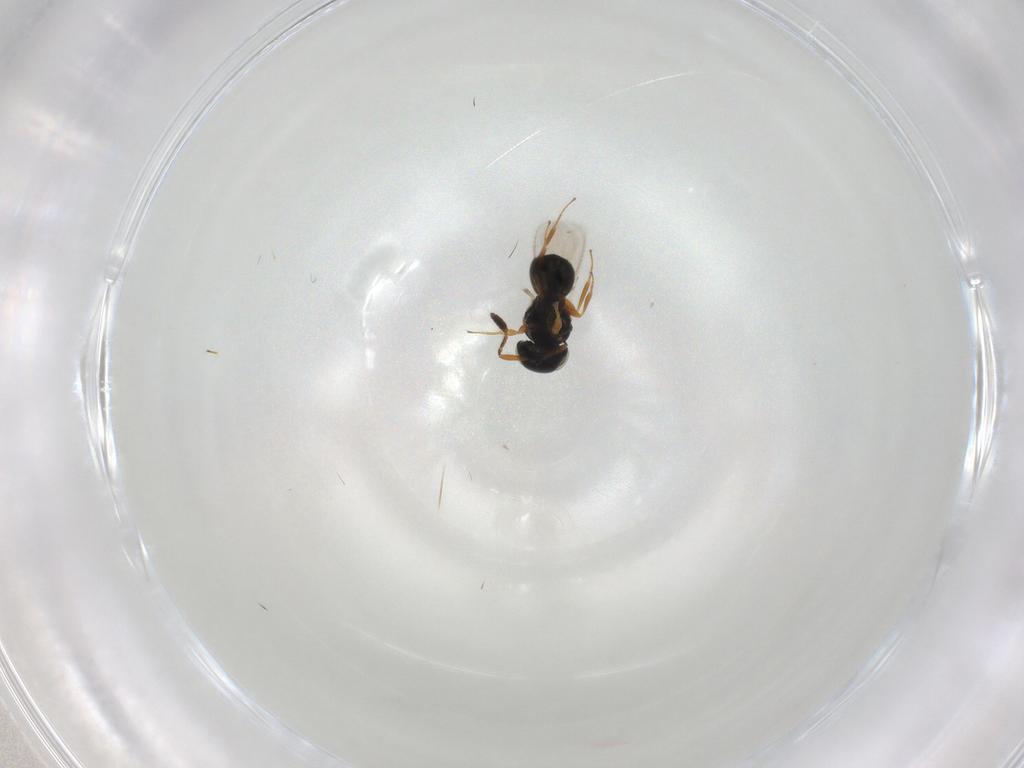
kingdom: Animalia
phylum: Arthropoda
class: Insecta
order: Hymenoptera
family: Scelionidae
